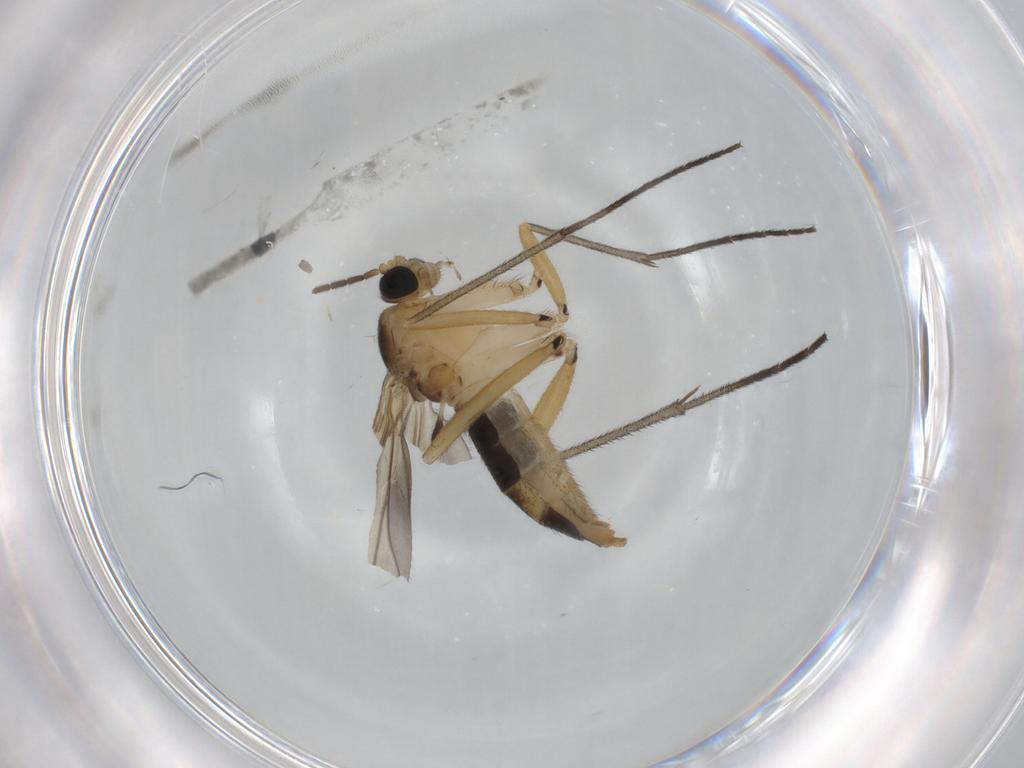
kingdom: Animalia
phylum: Arthropoda
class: Insecta
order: Diptera
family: Sciaridae
